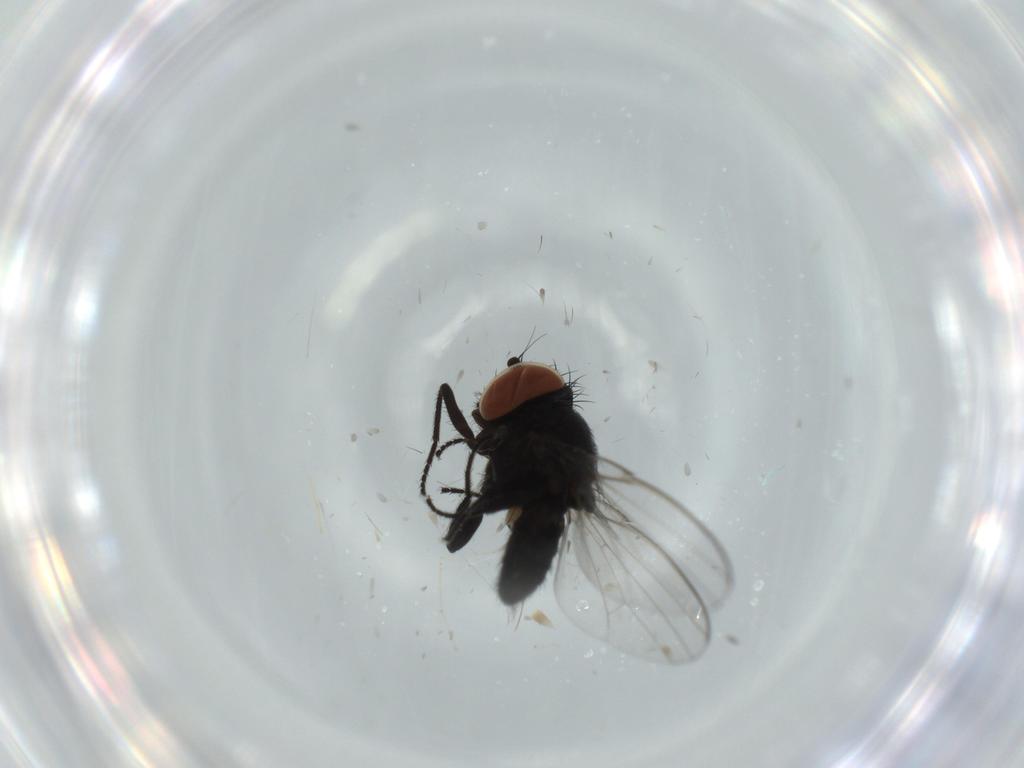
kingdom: Animalia
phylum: Arthropoda
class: Insecta
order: Diptera
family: Milichiidae
